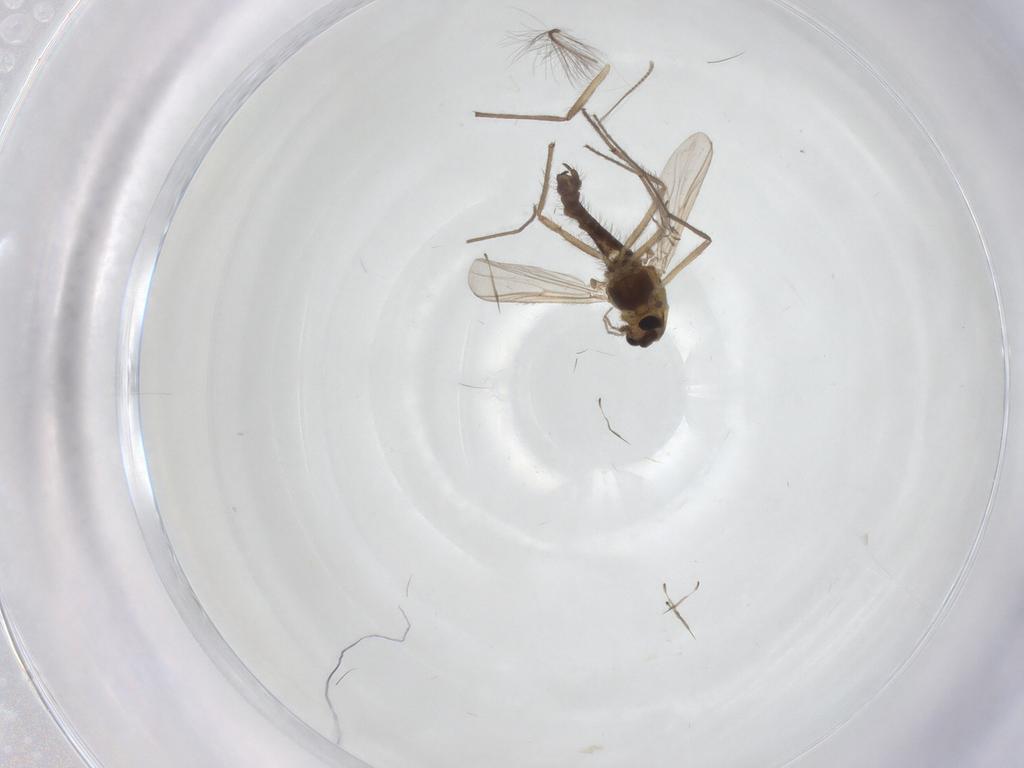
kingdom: Animalia
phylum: Arthropoda
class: Insecta
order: Diptera
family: Chironomidae
